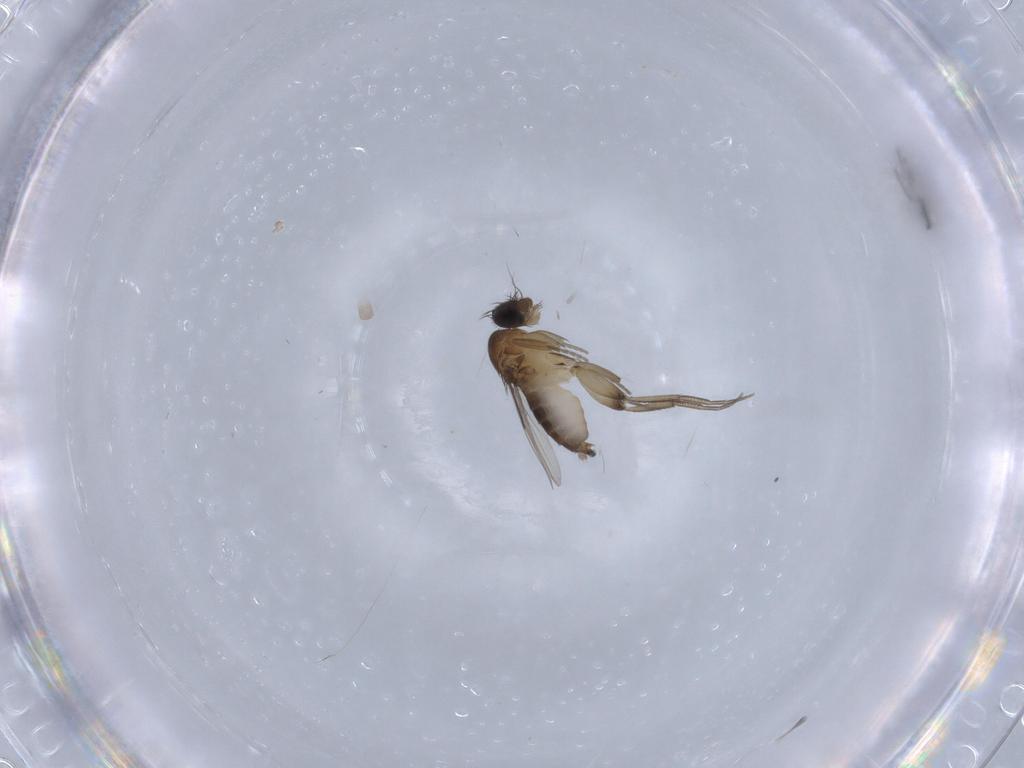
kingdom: Animalia
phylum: Arthropoda
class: Insecta
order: Diptera
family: Phoridae
